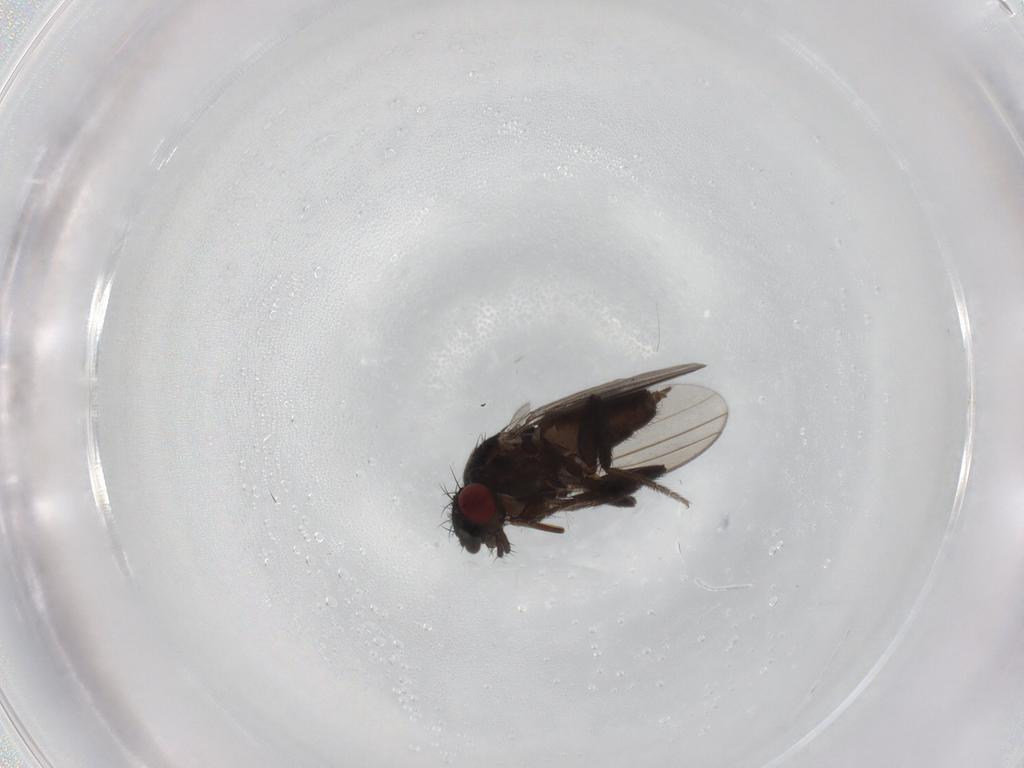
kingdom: Animalia
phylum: Arthropoda
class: Insecta
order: Diptera
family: Milichiidae
